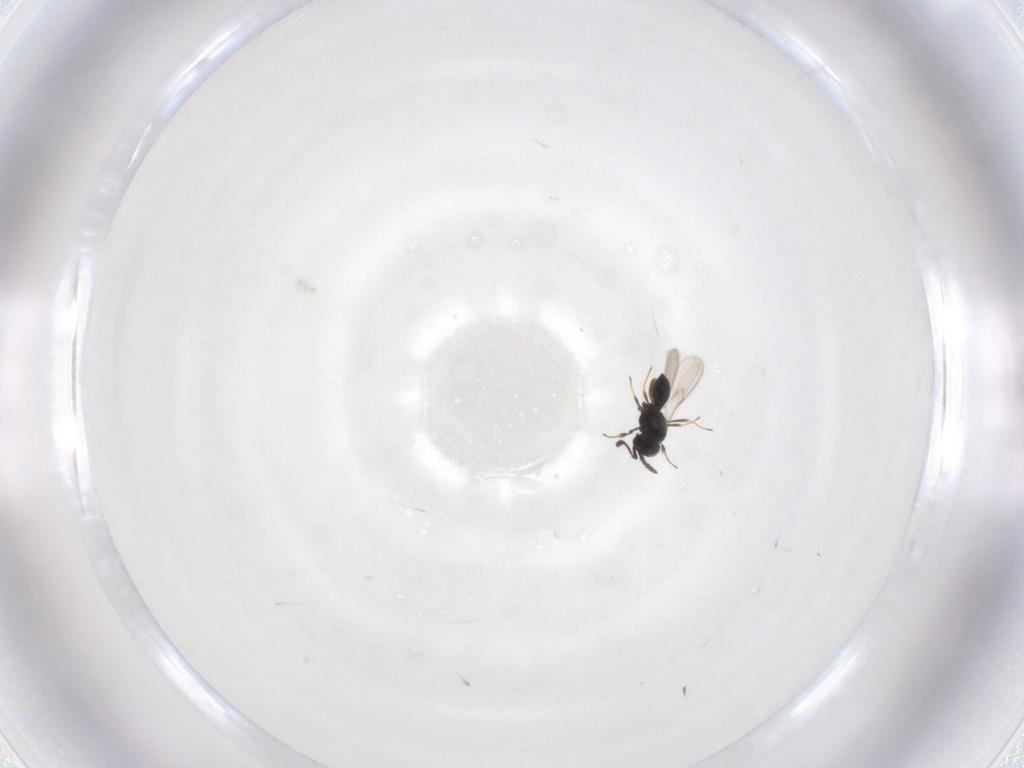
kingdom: Animalia
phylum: Arthropoda
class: Insecta
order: Hymenoptera
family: Scelionidae
